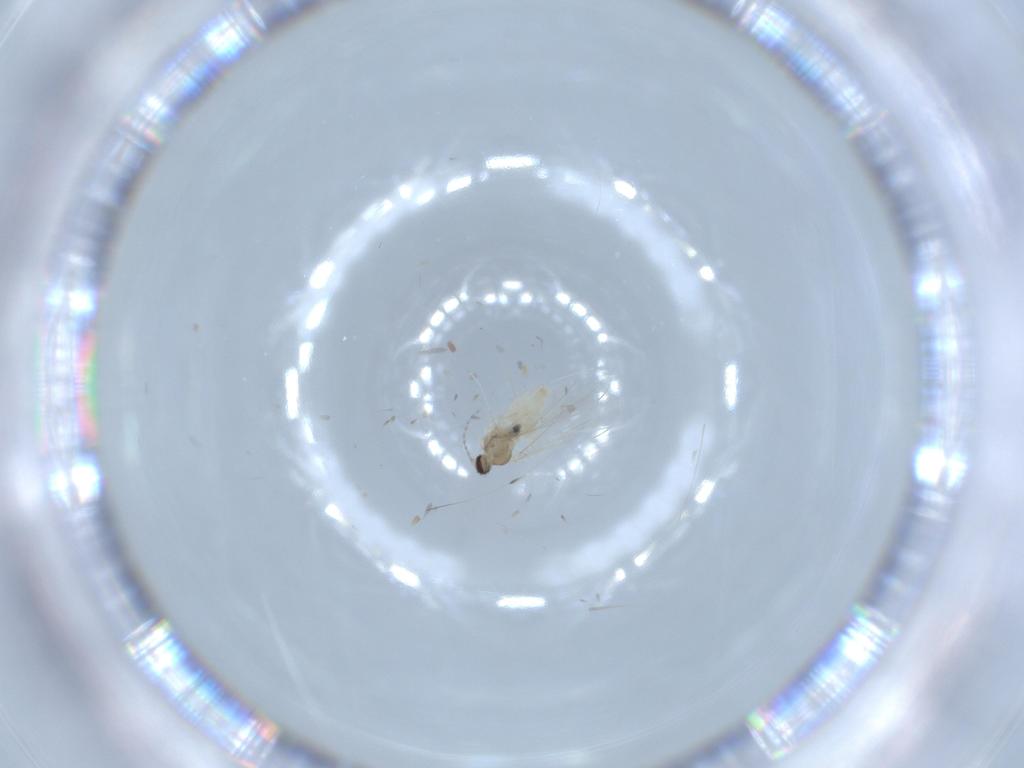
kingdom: Animalia
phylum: Arthropoda
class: Insecta
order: Diptera
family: Cecidomyiidae
